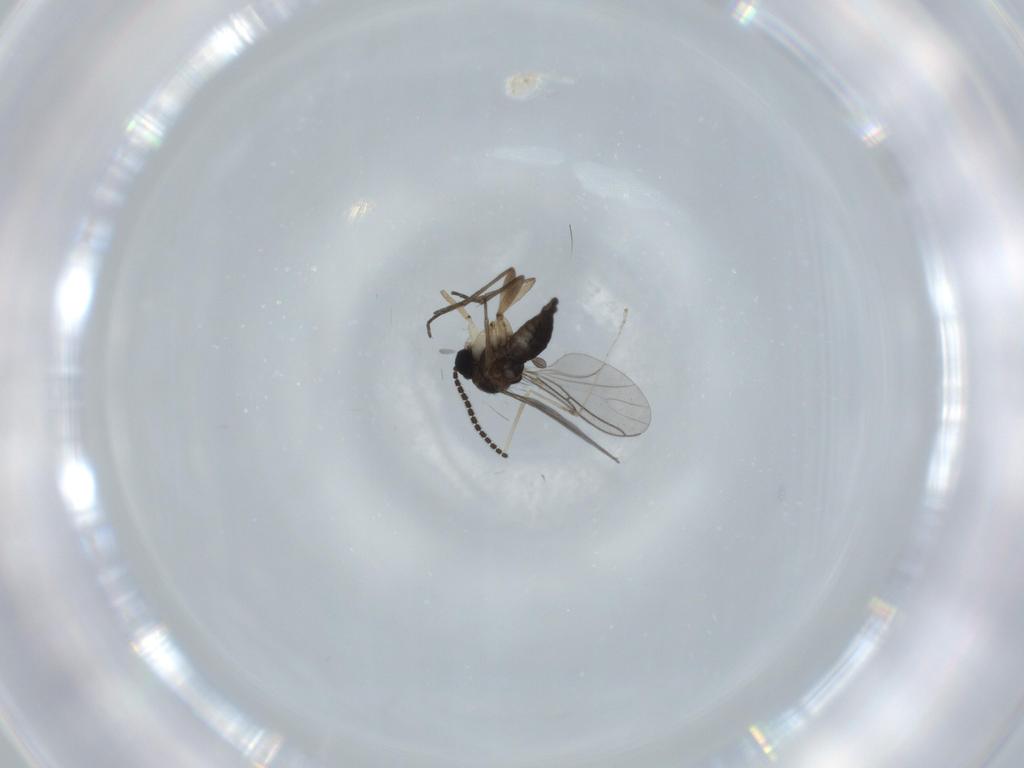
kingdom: Animalia
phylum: Arthropoda
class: Insecta
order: Diptera
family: Sciaridae
